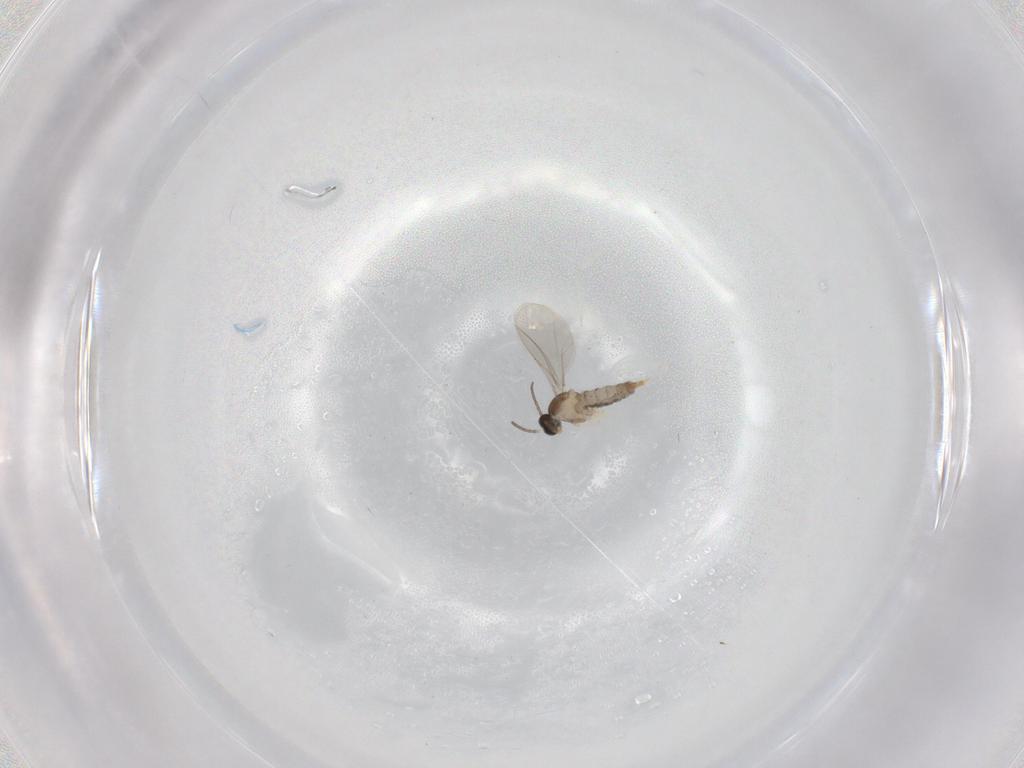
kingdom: Animalia
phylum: Arthropoda
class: Insecta
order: Diptera
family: Cecidomyiidae
